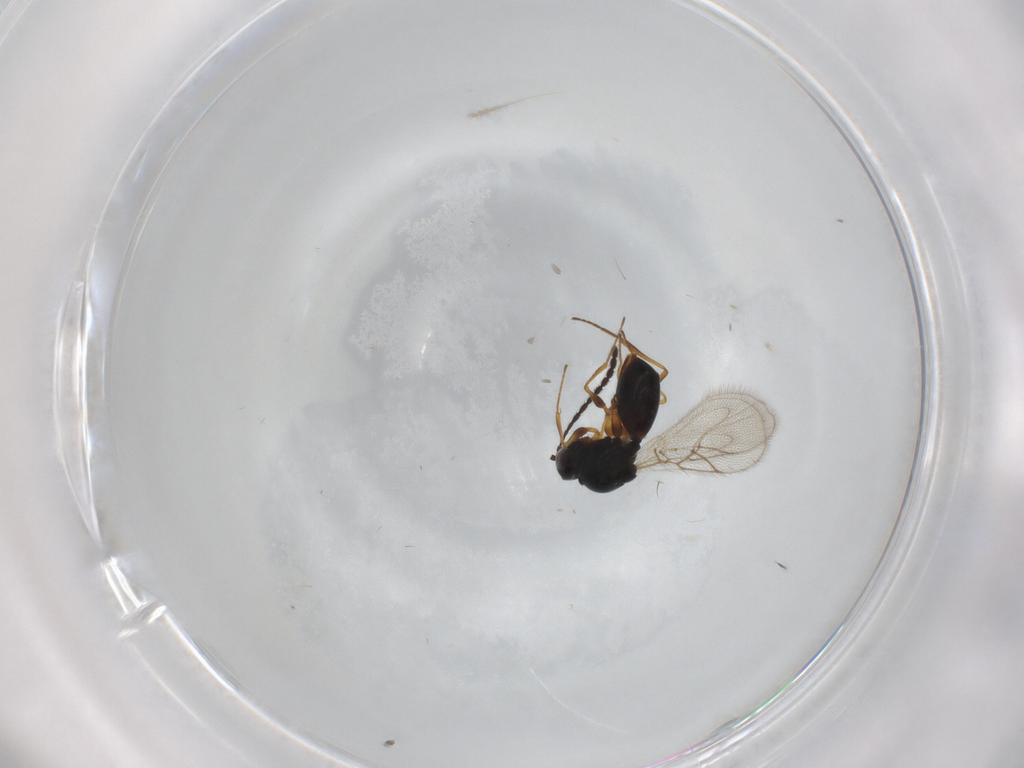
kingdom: Animalia
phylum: Arthropoda
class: Insecta
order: Hymenoptera
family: Figitidae
